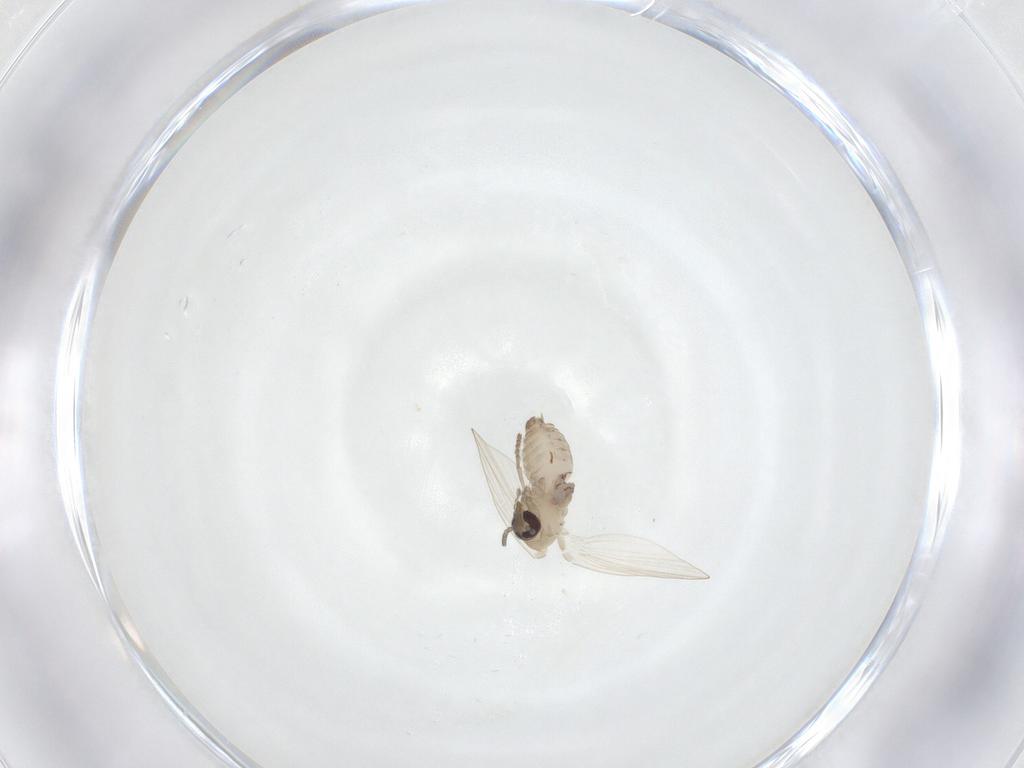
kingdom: Animalia
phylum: Arthropoda
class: Insecta
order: Diptera
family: Psychodidae
